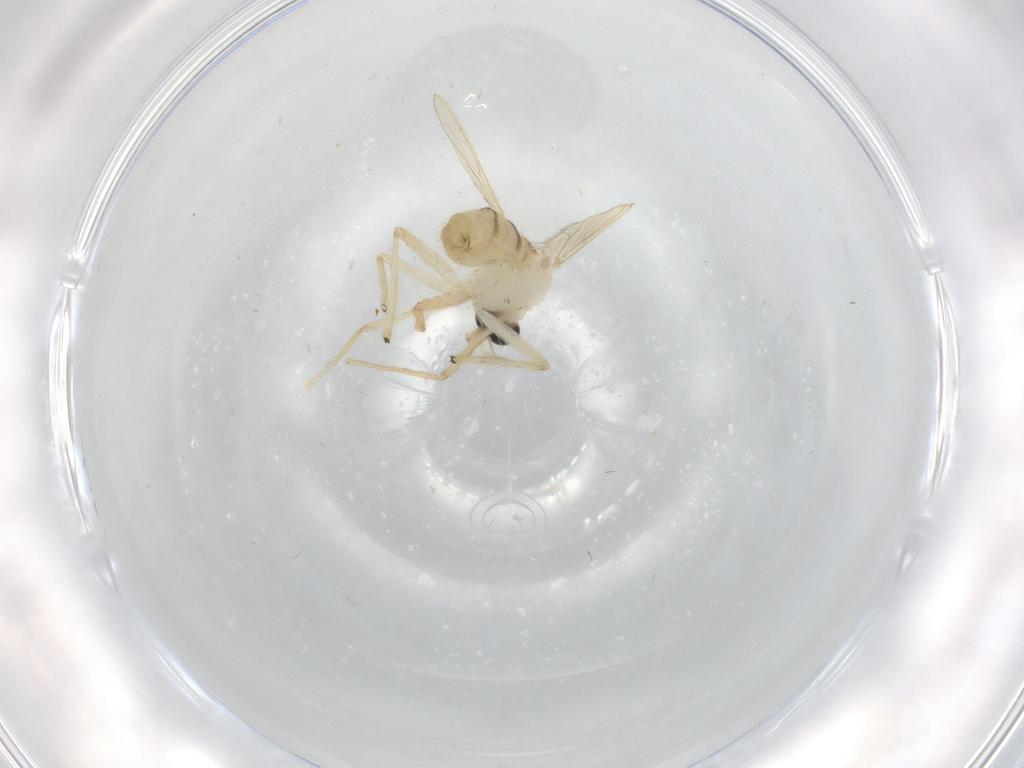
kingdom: Animalia
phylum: Arthropoda
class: Insecta
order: Diptera
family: Chironomidae
